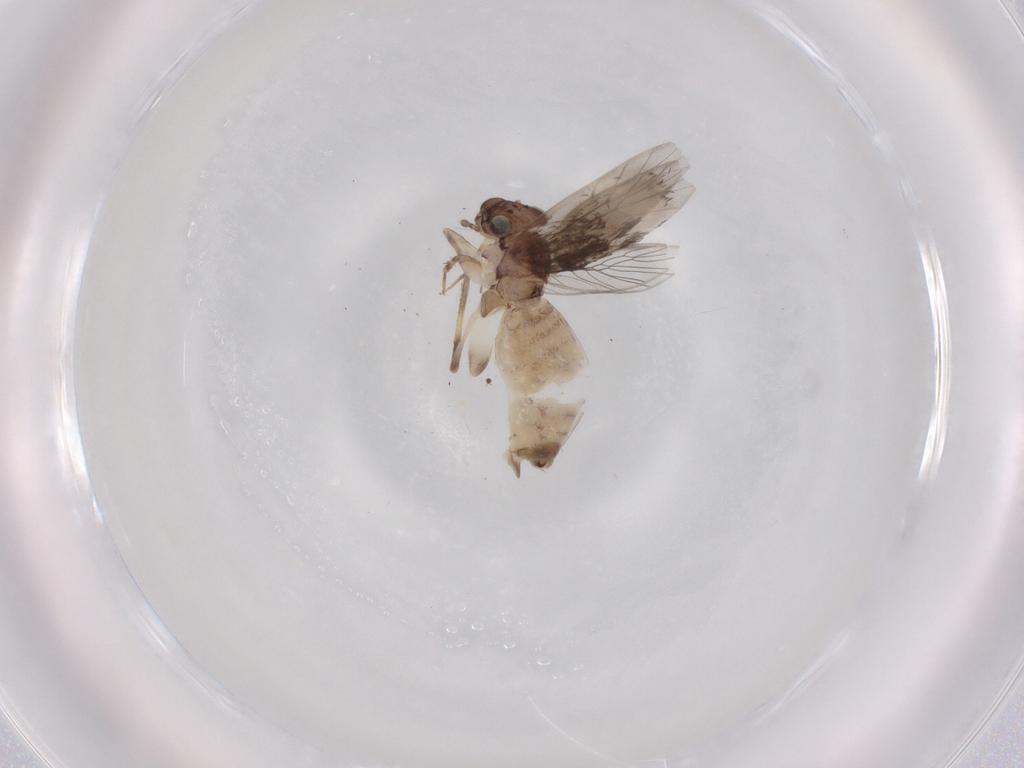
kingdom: Animalia
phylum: Arthropoda
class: Insecta
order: Psocodea
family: Lepidopsocidae
